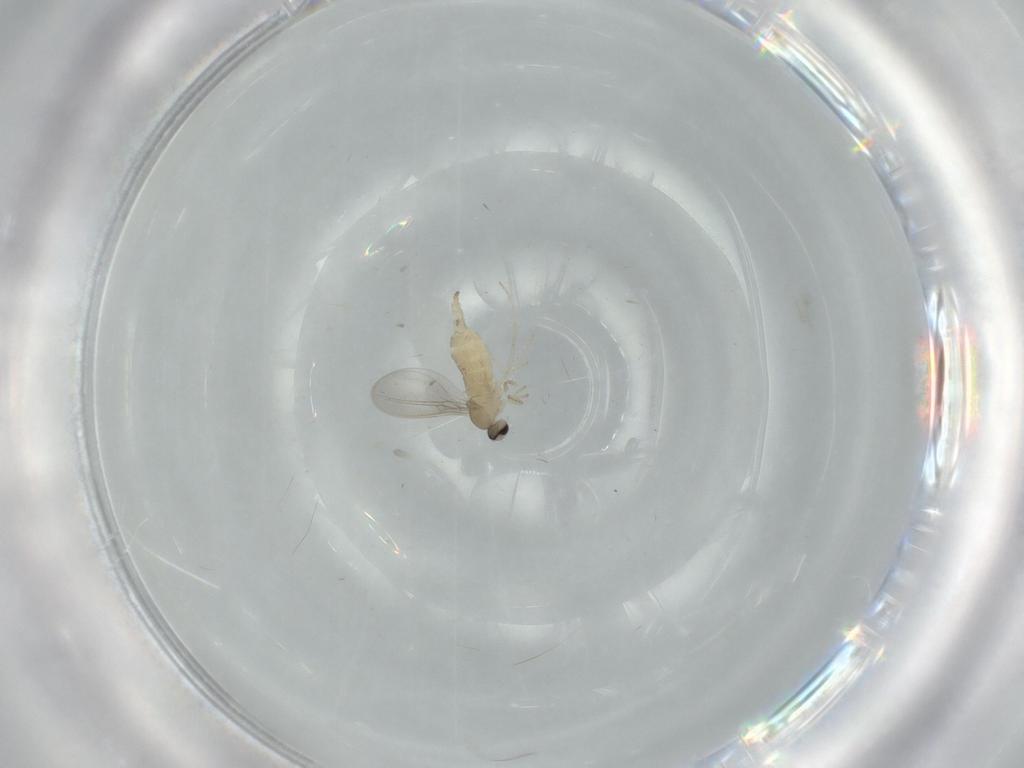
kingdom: Animalia
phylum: Arthropoda
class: Insecta
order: Diptera
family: Cecidomyiidae
